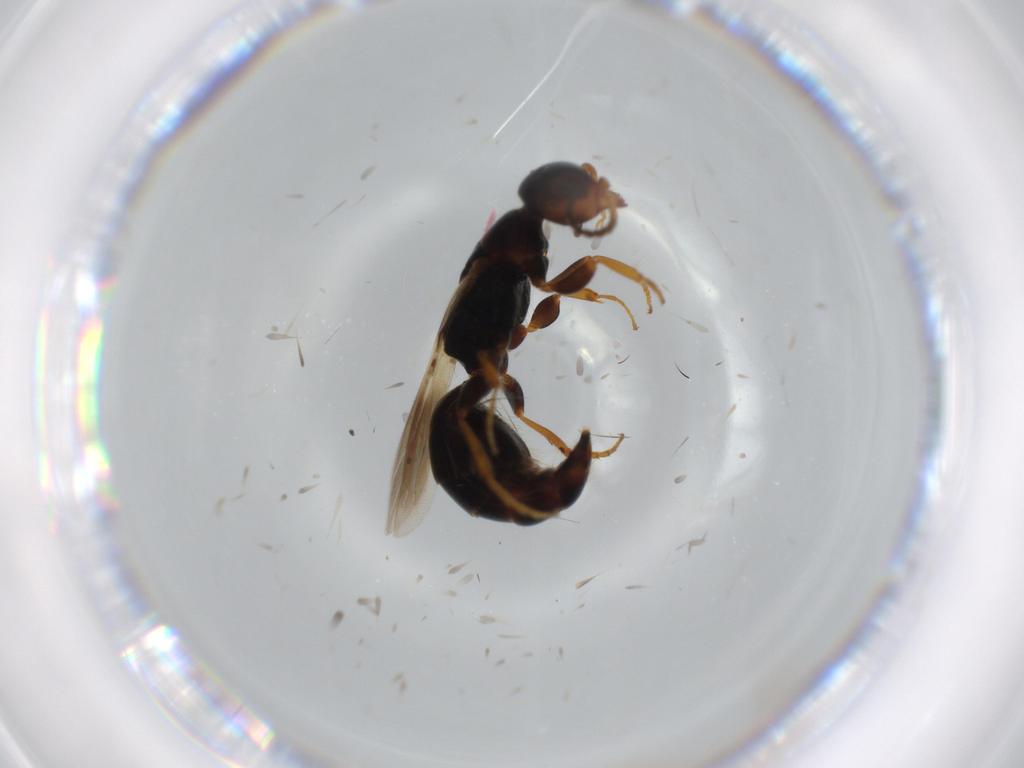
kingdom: Animalia
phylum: Arthropoda
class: Insecta
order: Hymenoptera
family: Bethylidae
